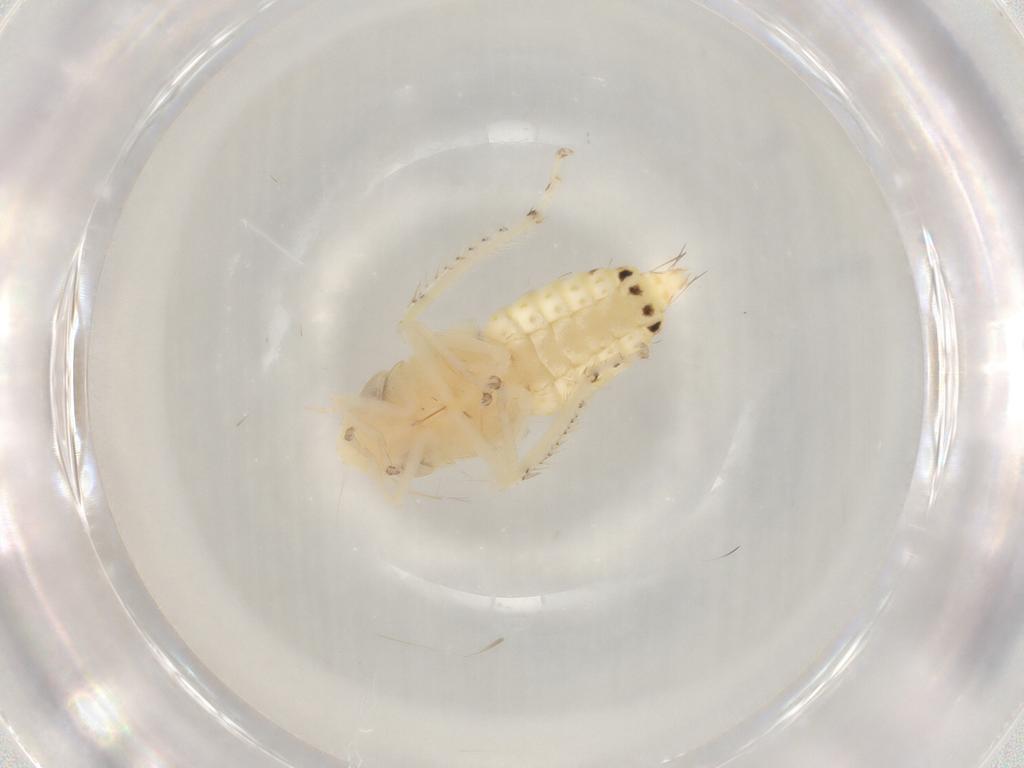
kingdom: Animalia
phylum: Arthropoda
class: Insecta
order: Hemiptera
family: Cicadellidae
